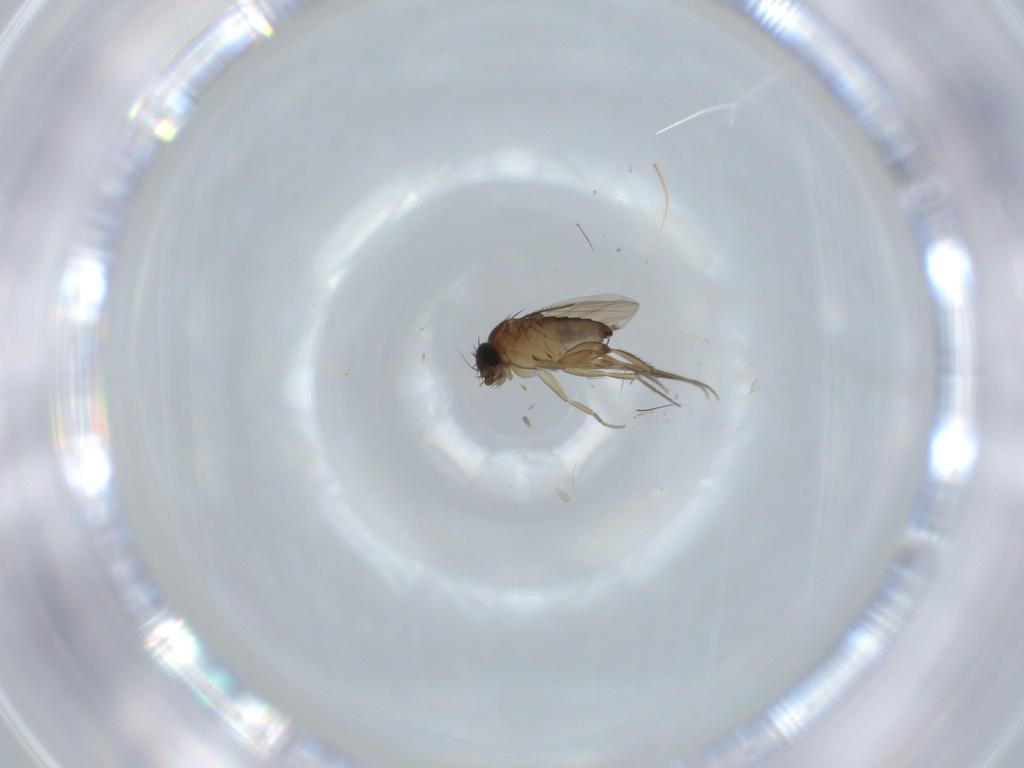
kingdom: Animalia
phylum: Arthropoda
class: Insecta
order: Diptera
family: Phoridae
